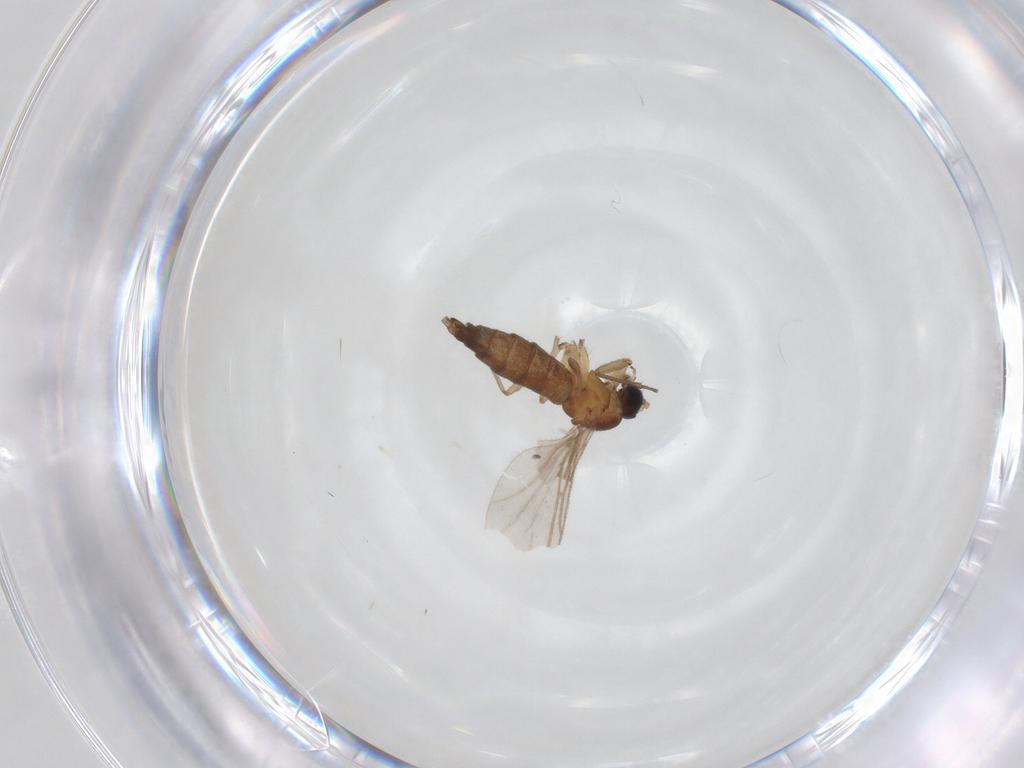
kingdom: Animalia
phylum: Arthropoda
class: Insecta
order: Diptera
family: Sciaridae
